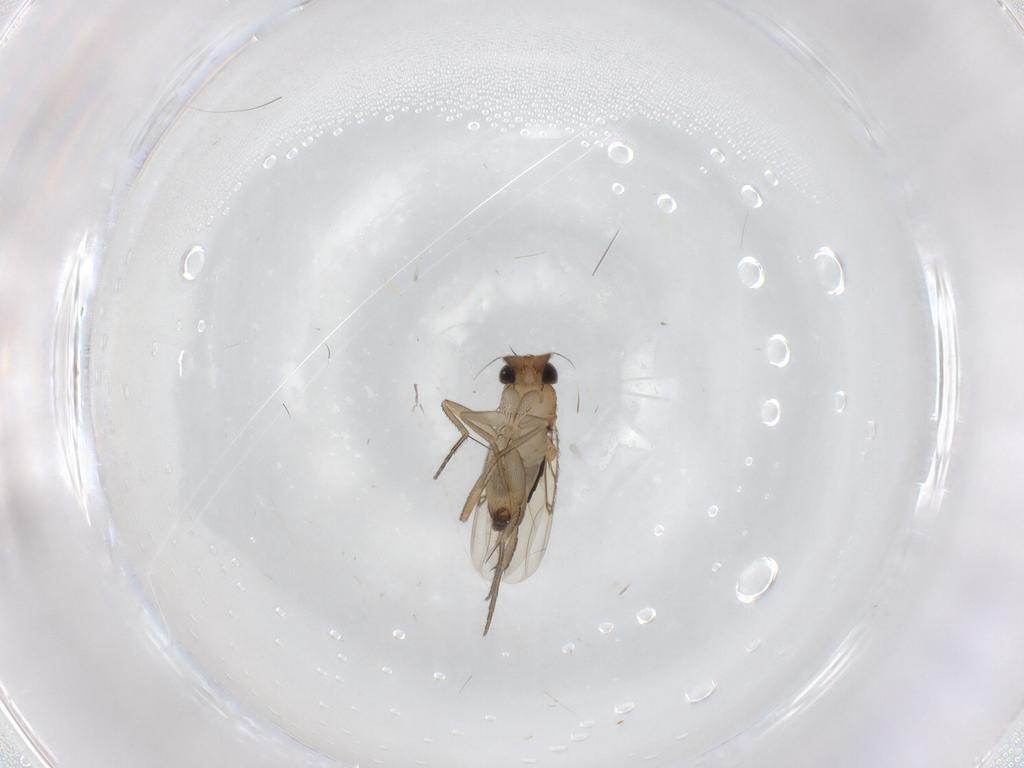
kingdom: Animalia
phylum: Arthropoda
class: Insecta
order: Diptera
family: Phoridae
